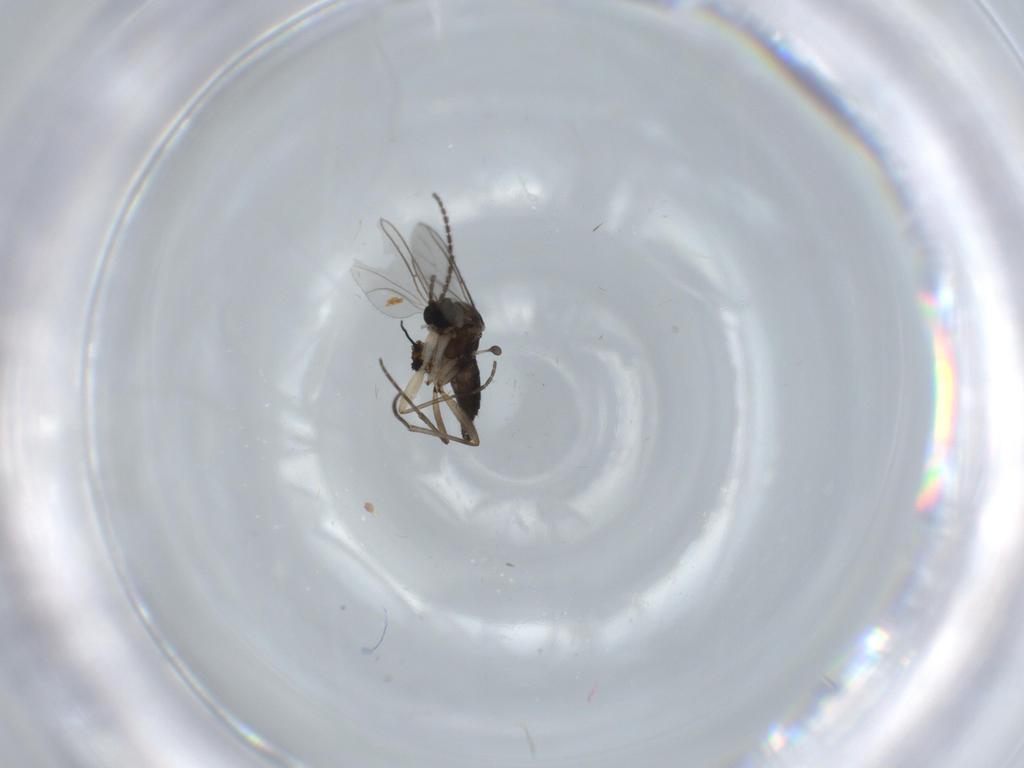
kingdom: Animalia
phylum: Arthropoda
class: Insecta
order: Diptera
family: Sciaridae
